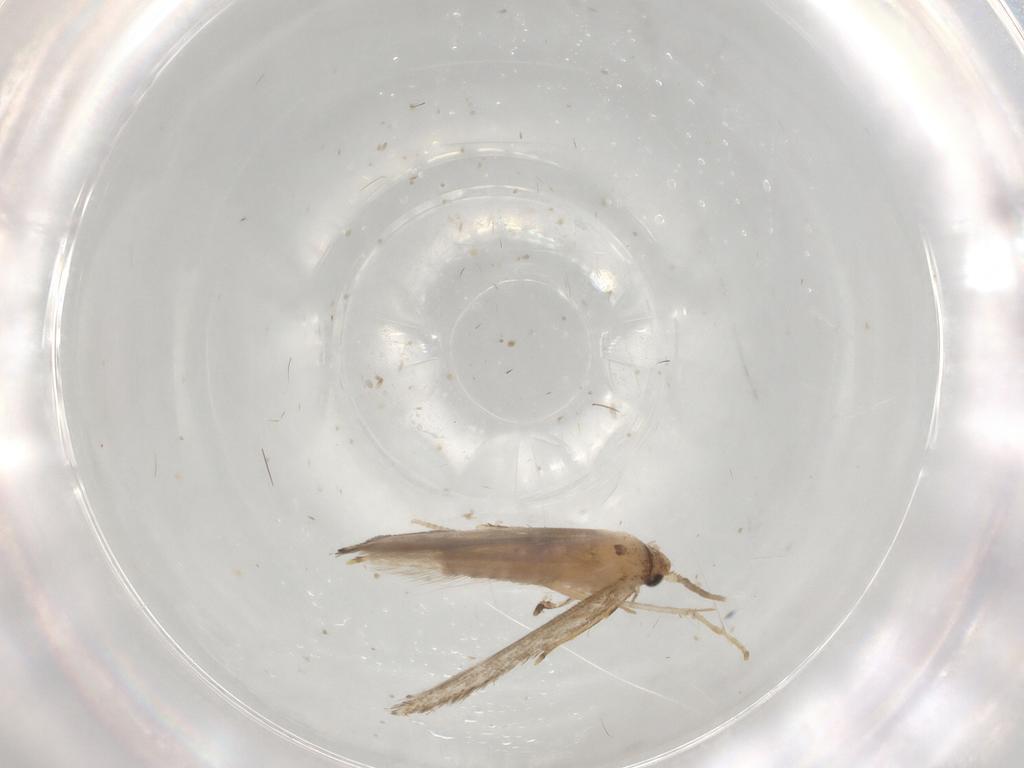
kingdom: Animalia
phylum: Arthropoda
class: Insecta
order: Lepidoptera
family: Tineidae
